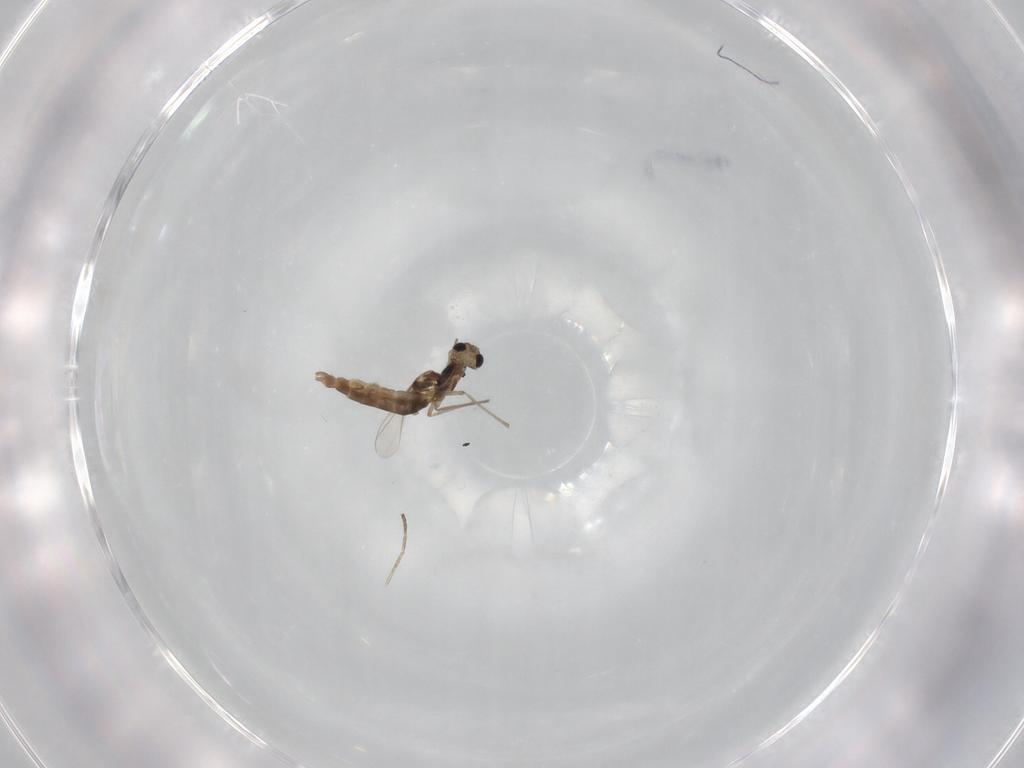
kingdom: Animalia
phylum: Arthropoda
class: Insecta
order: Diptera
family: Chironomidae
